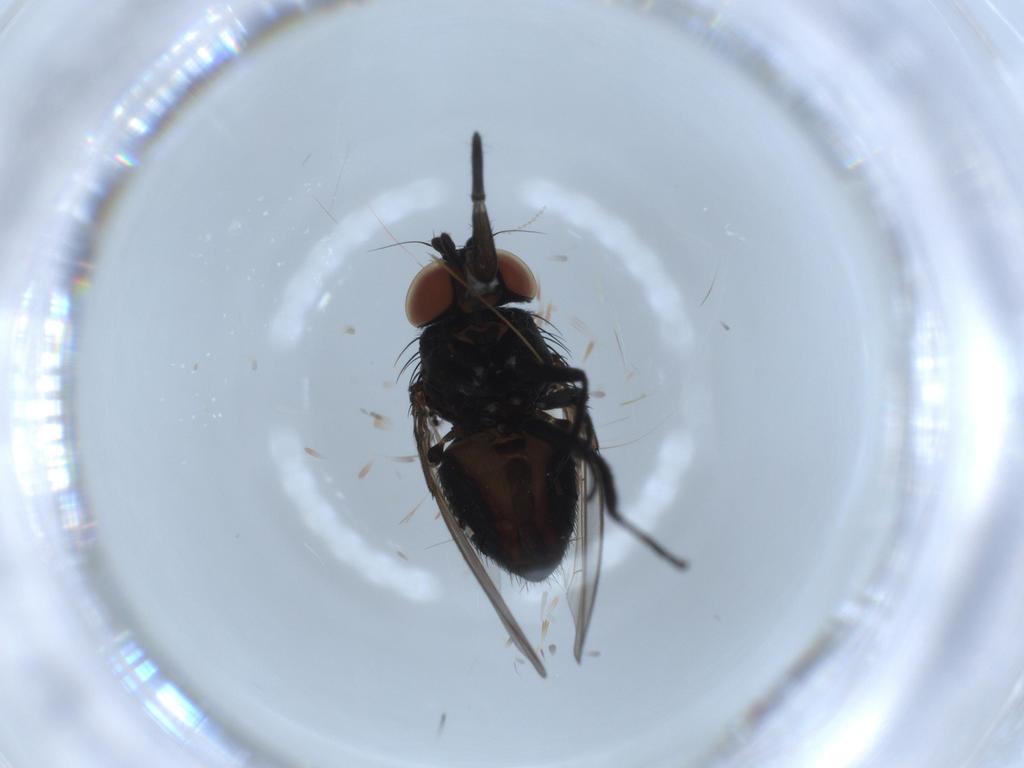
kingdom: Animalia
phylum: Arthropoda
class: Insecta
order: Diptera
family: Milichiidae
